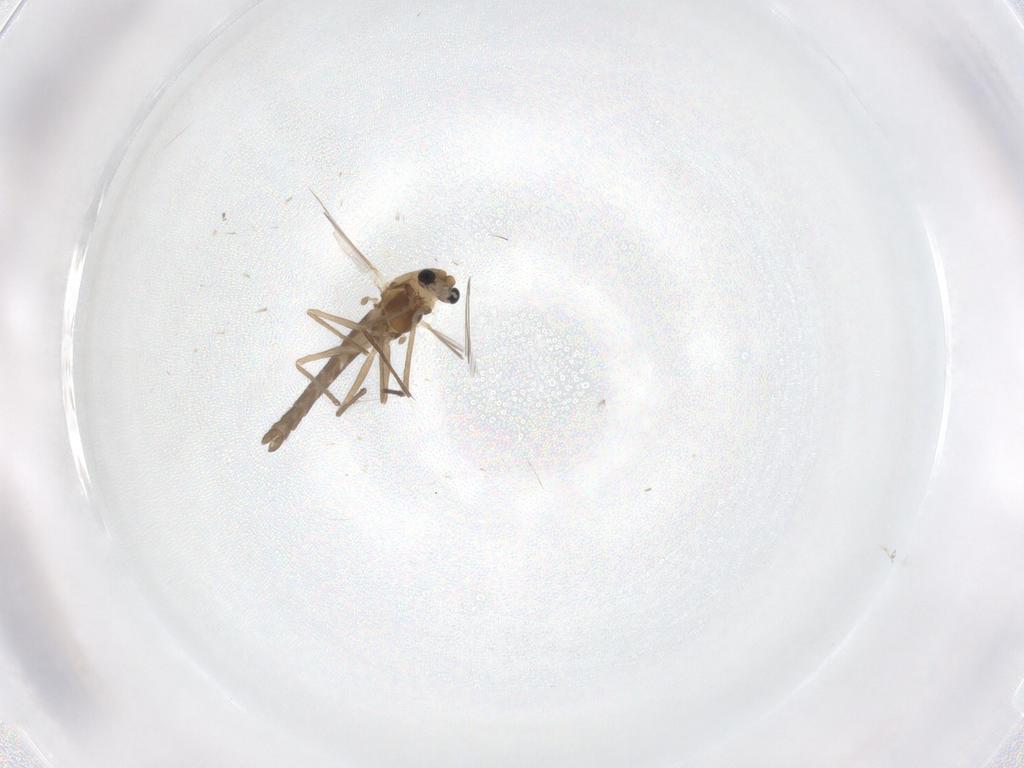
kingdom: Animalia
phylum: Arthropoda
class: Insecta
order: Diptera
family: Chironomidae
